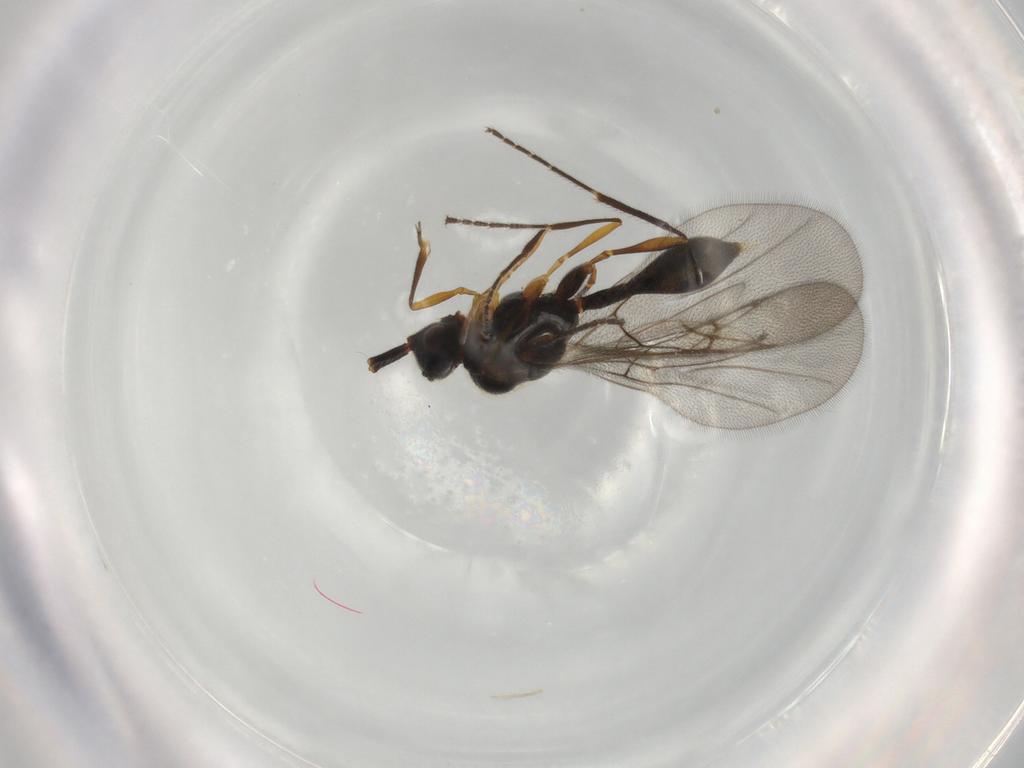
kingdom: Animalia
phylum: Arthropoda
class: Insecta
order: Hymenoptera
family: Diapriidae
